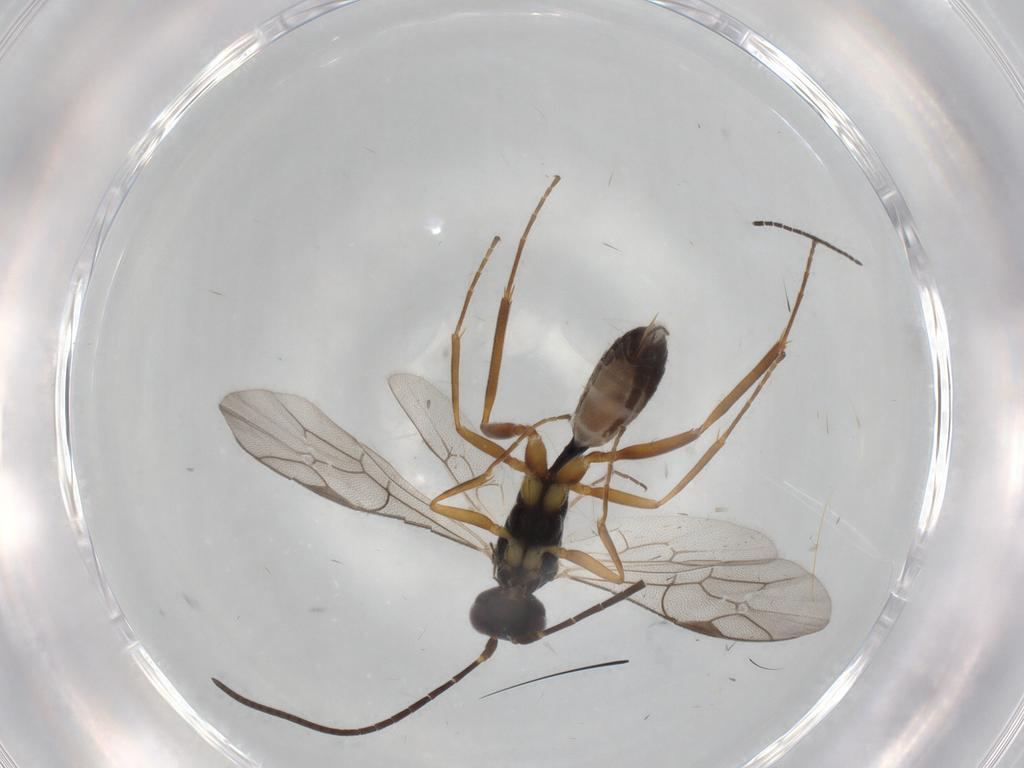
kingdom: Animalia
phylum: Arthropoda
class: Insecta
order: Hymenoptera
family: Ichneumonidae
